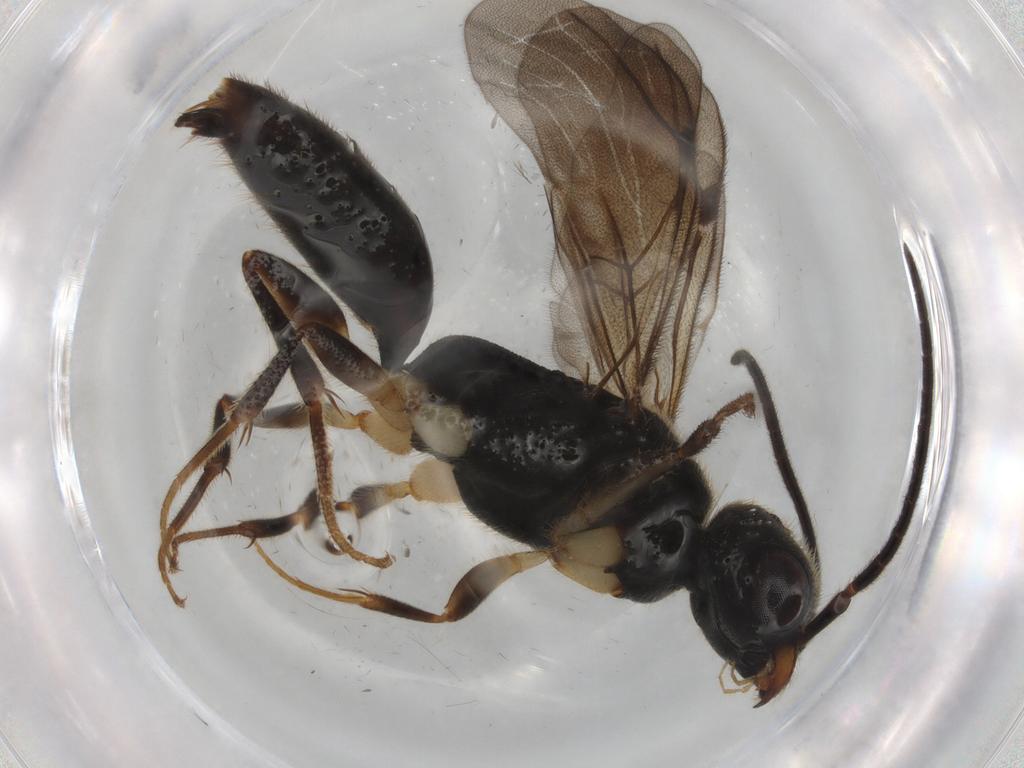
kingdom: Animalia
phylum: Arthropoda
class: Insecta
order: Hymenoptera
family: Bethylidae
